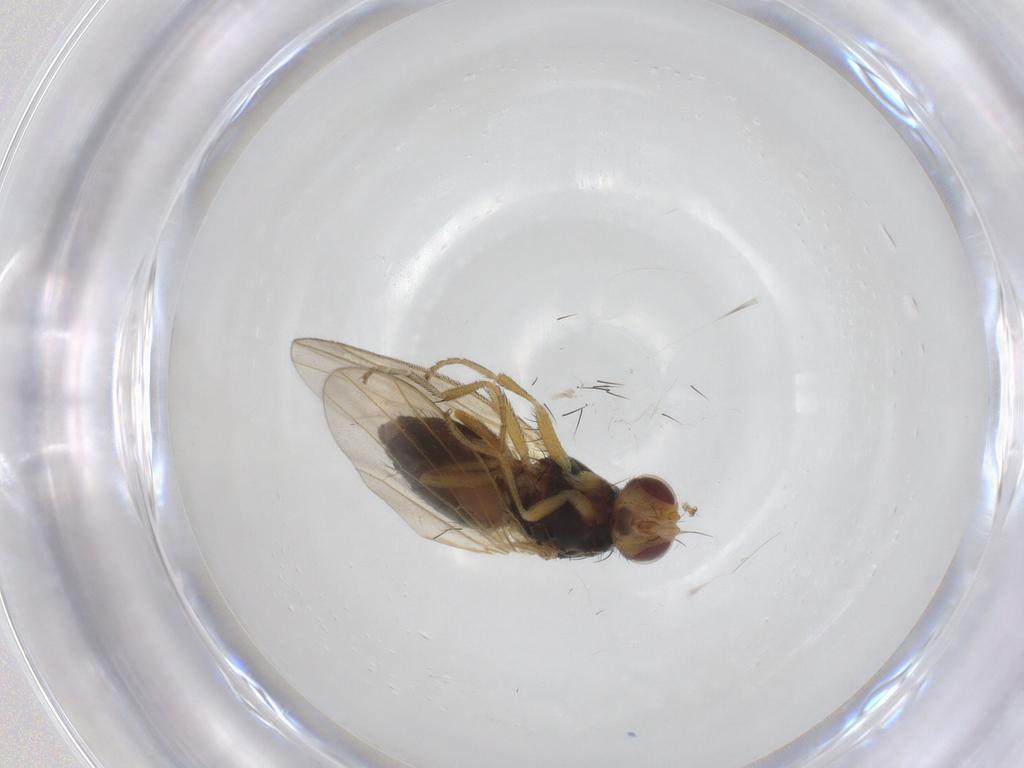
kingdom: Animalia
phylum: Arthropoda
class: Insecta
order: Diptera
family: Heleomyzidae
